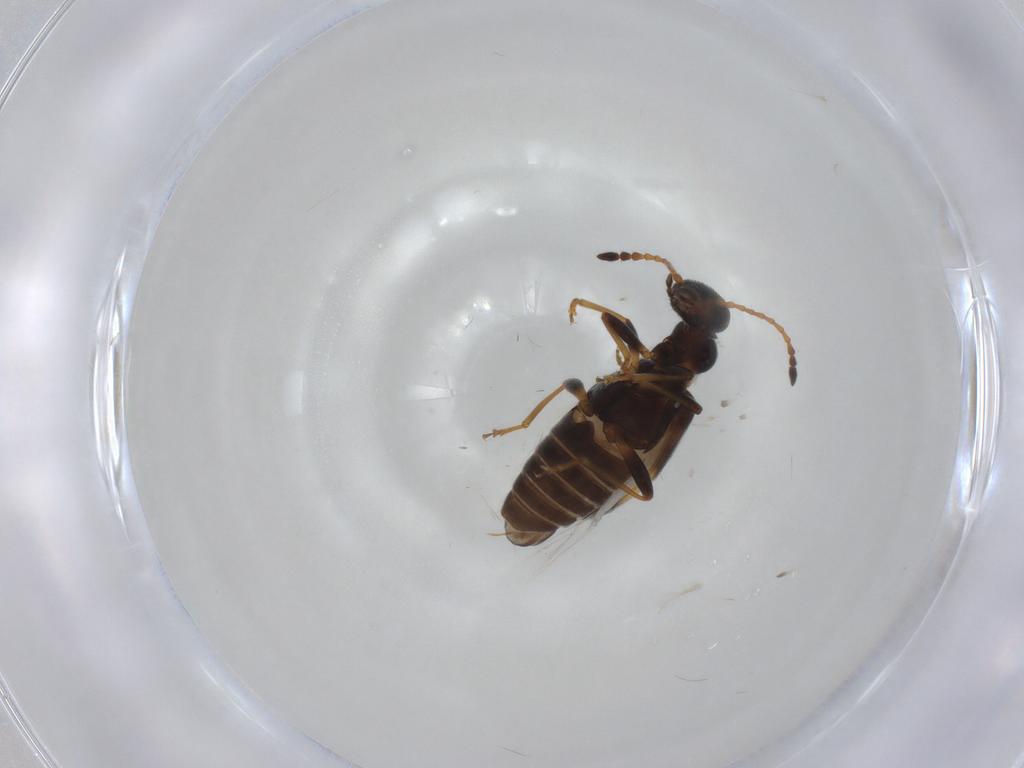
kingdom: Animalia
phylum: Arthropoda
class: Insecta
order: Coleoptera
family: Anthicidae
